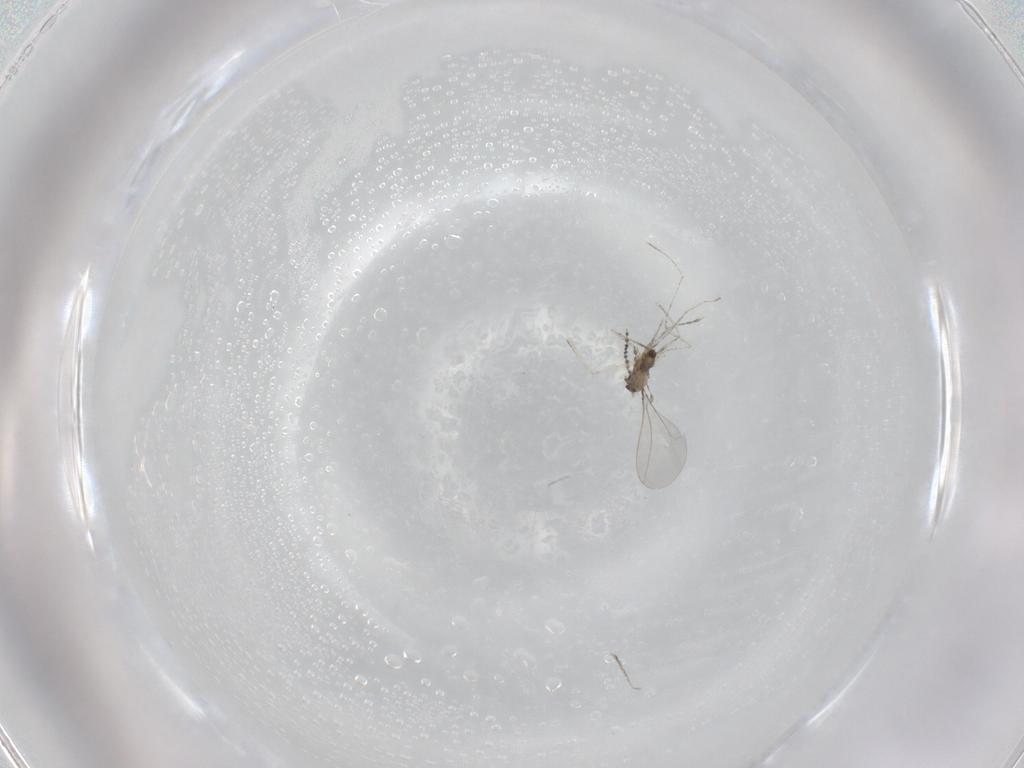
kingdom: Animalia
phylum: Arthropoda
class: Insecta
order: Diptera
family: Cecidomyiidae
